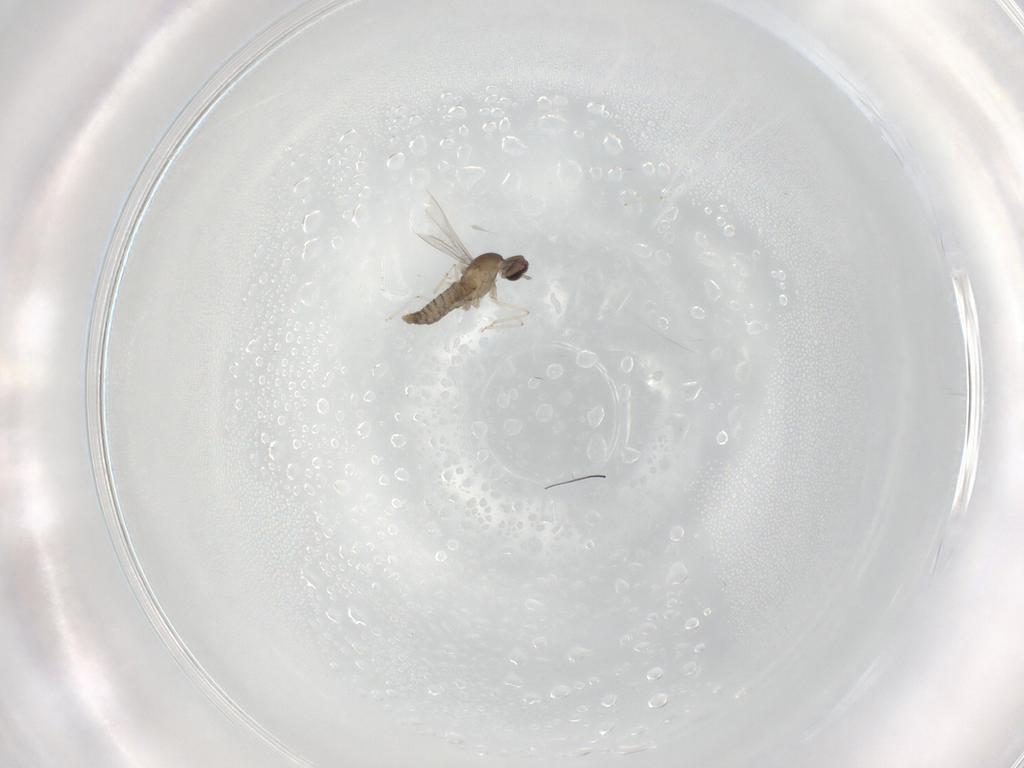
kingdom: Animalia
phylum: Arthropoda
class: Insecta
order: Diptera
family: Cecidomyiidae
